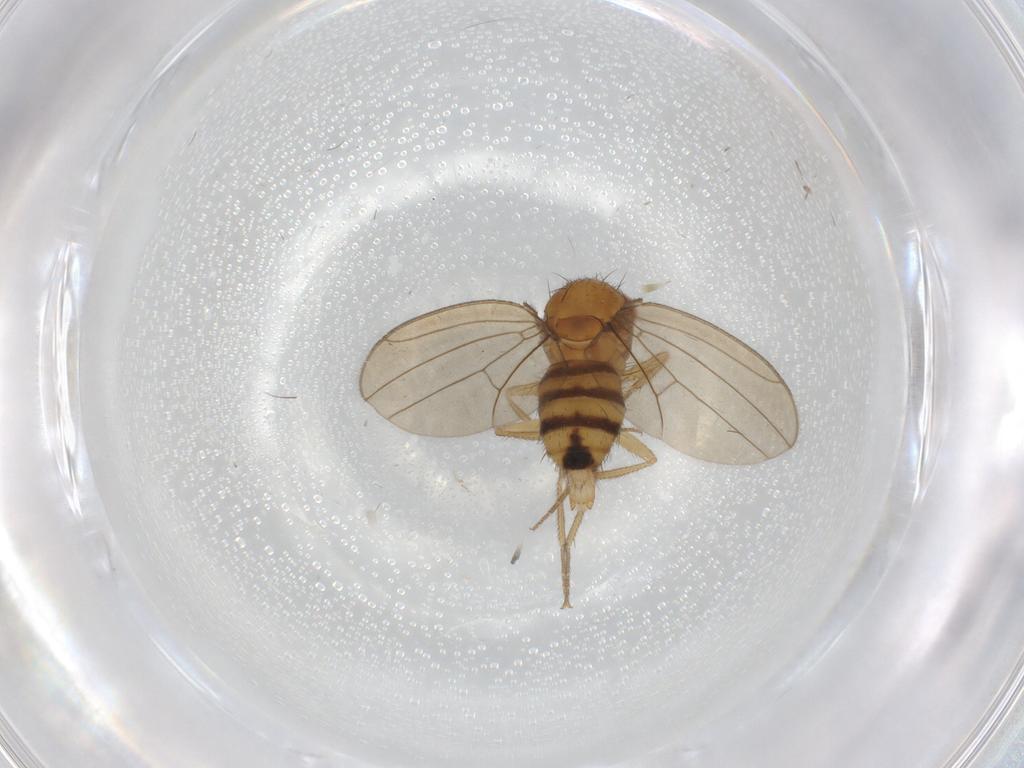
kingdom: Animalia
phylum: Arthropoda
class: Insecta
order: Diptera
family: Drosophilidae
